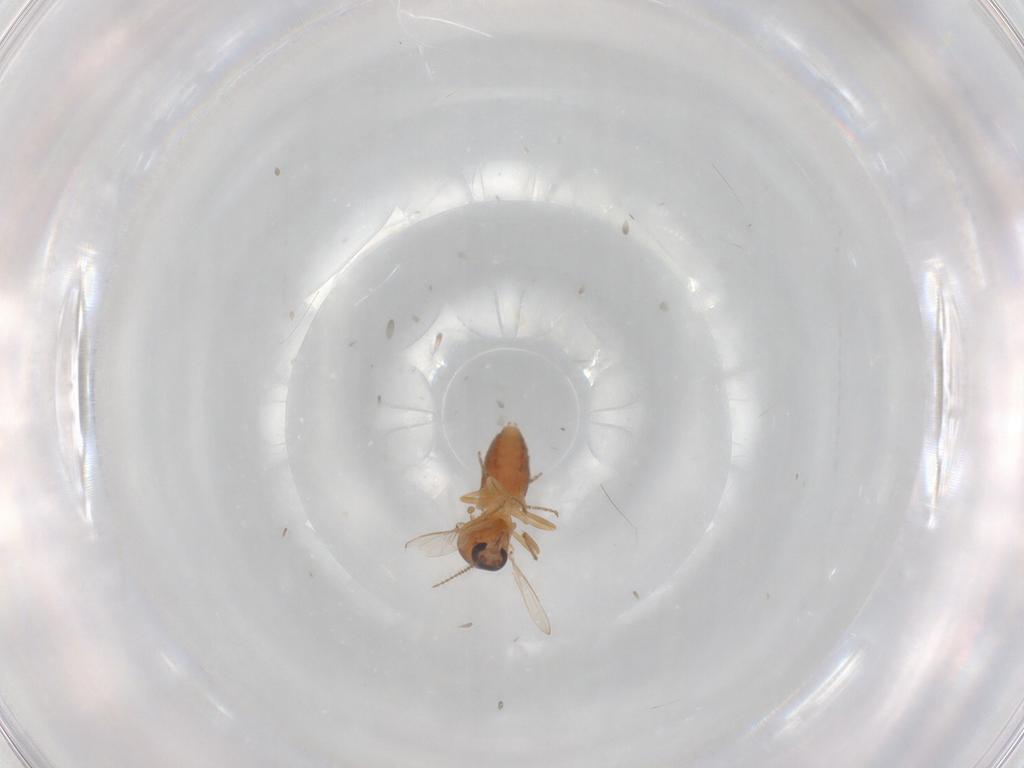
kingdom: Animalia
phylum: Arthropoda
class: Insecta
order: Diptera
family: Ceratopogonidae
